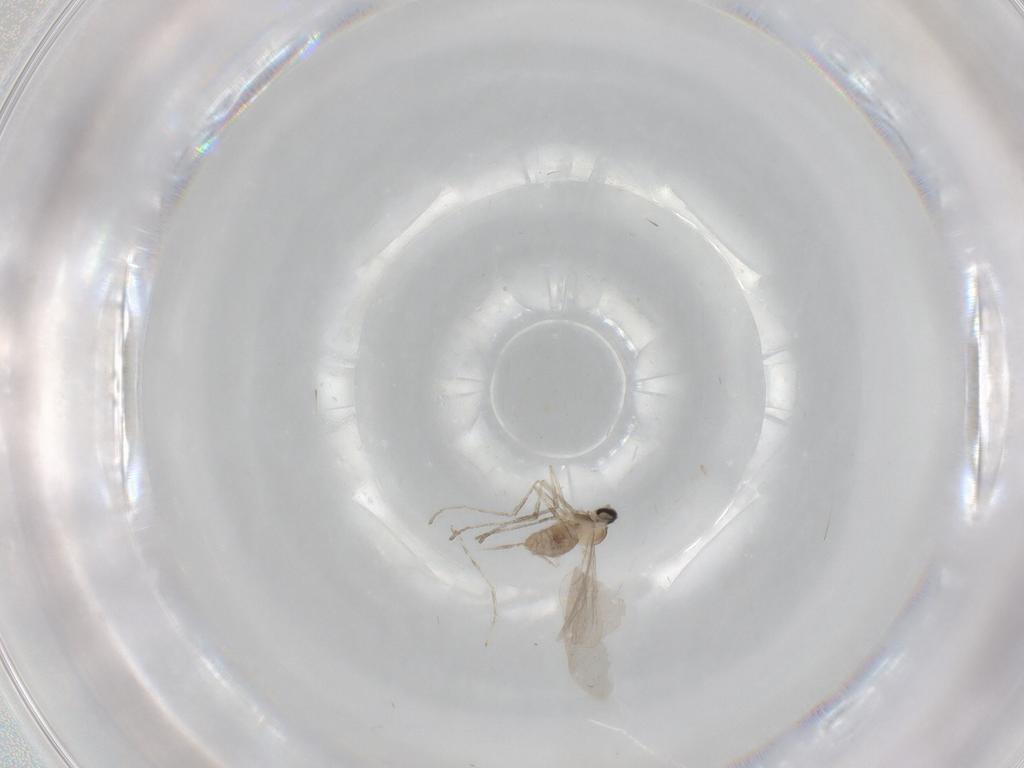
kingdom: Animalia
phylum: Arthropoda
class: Insecta
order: Diptera
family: Cecidomyiidae
